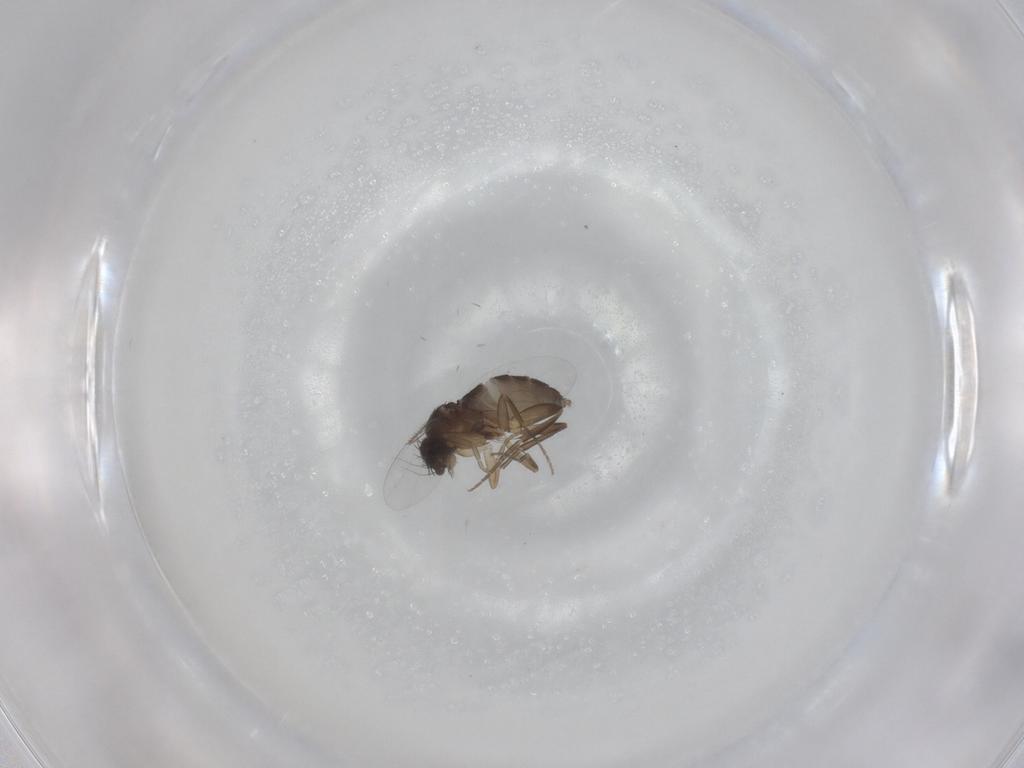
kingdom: Animalia
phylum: Arthropoda
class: Insecta
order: Diptera
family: Phoridae
